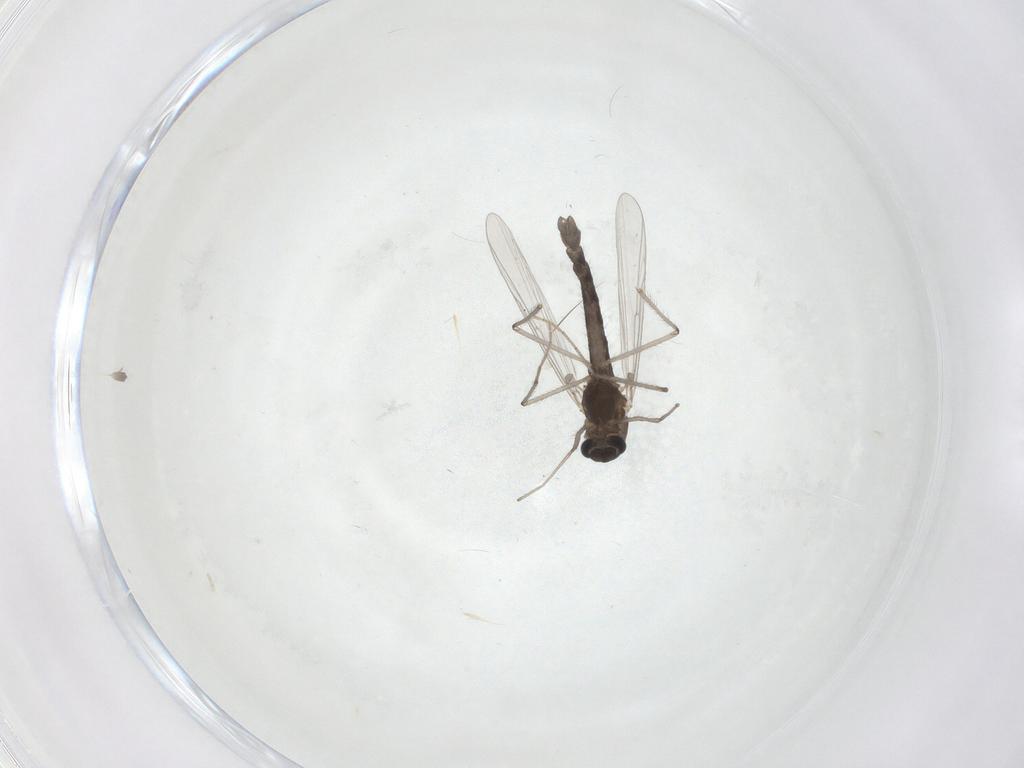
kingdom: Animalia
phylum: Arthropoda
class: Insecta
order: Diptera
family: Chironomidae
